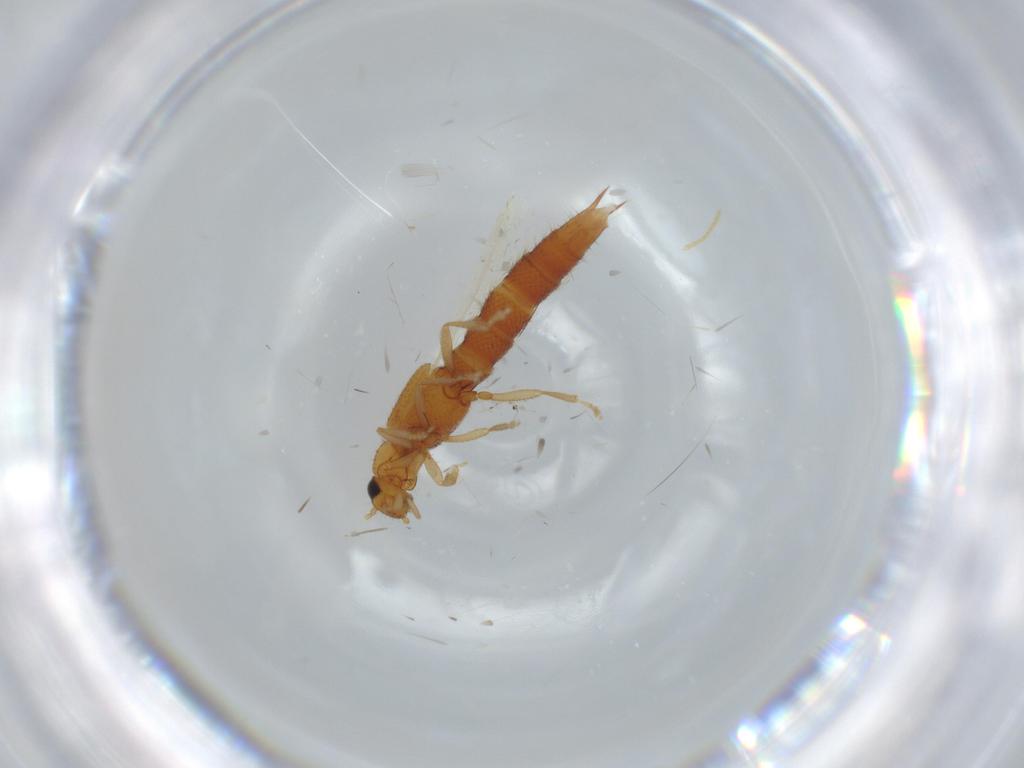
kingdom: Animalia
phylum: Arthropoda
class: Insecta
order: Coleoptera
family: Staphylinidae
